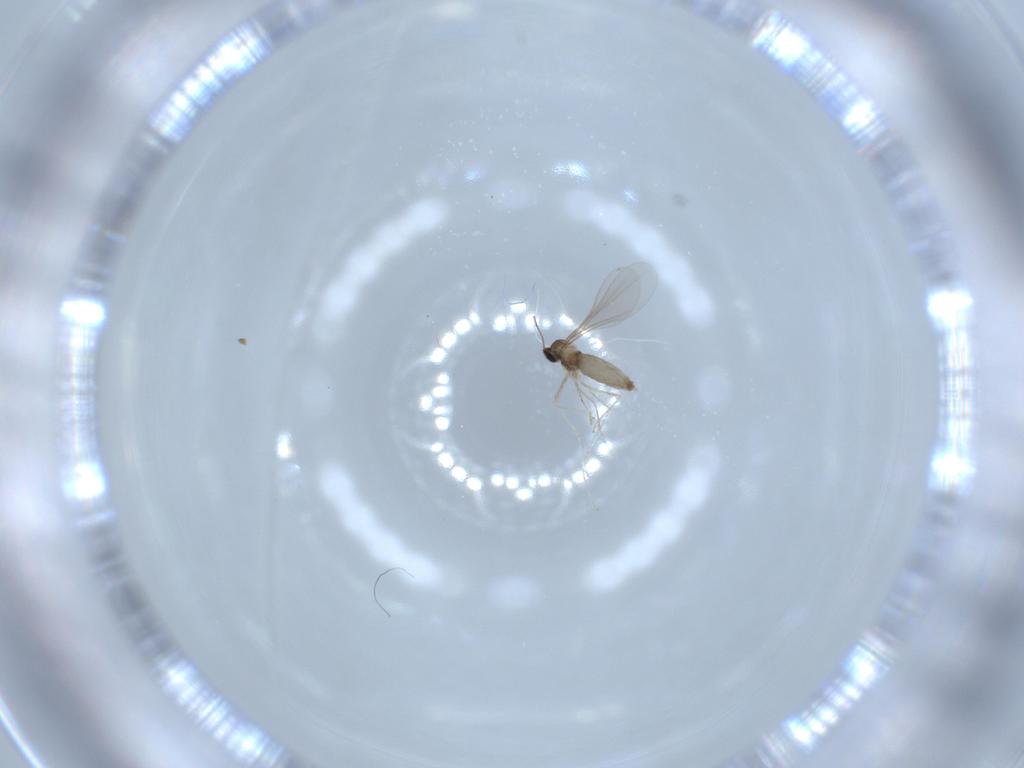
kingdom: Animalia
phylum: Arthropoda
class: Insecta
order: Diptera
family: Cecidomyiidae
